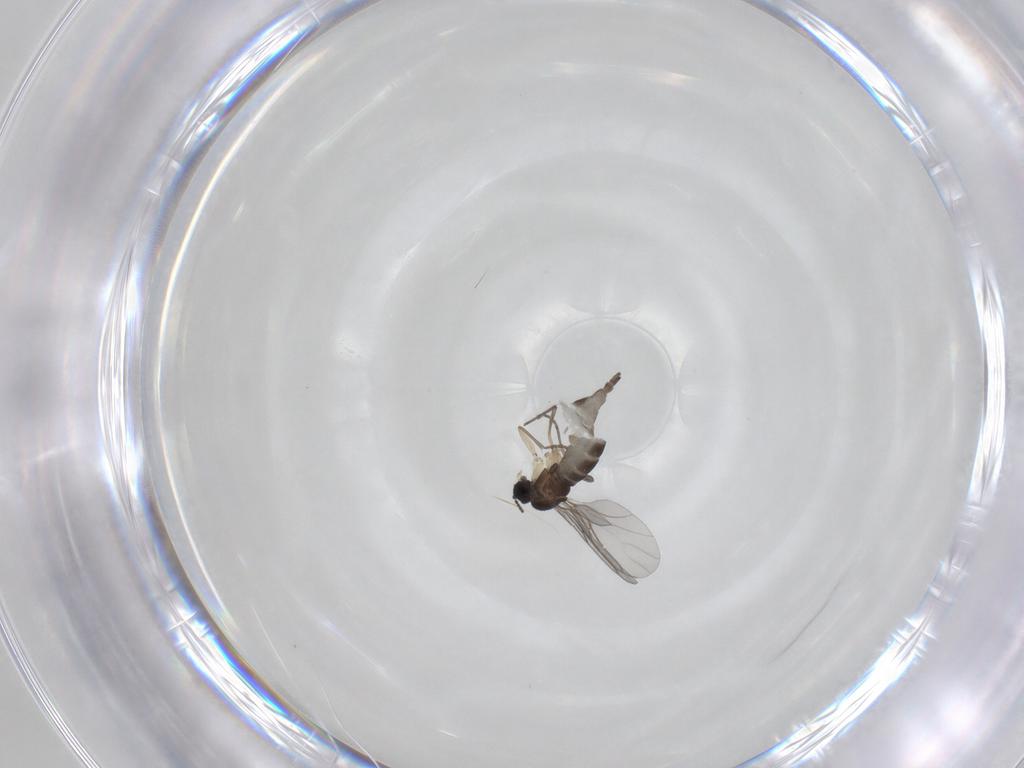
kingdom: Animalia
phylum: Arthropoda
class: Insecta
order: Diptera
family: Sciaridae
